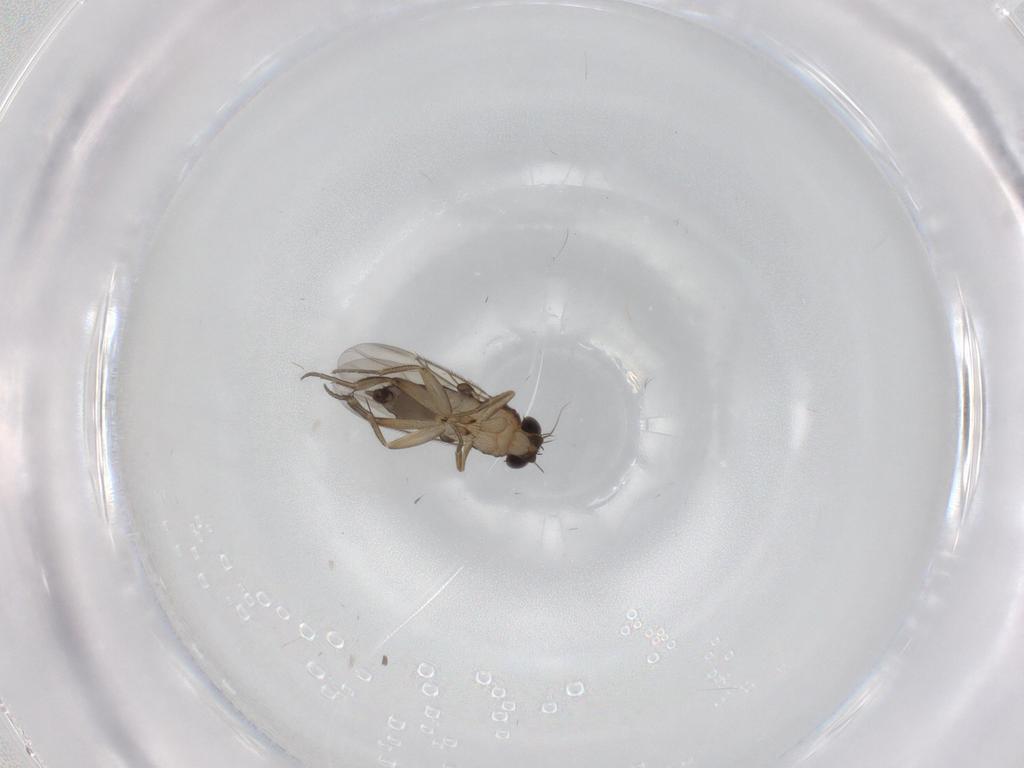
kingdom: Animalia
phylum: Arthropoda
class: Insecta
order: Diptera
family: Phoridae
